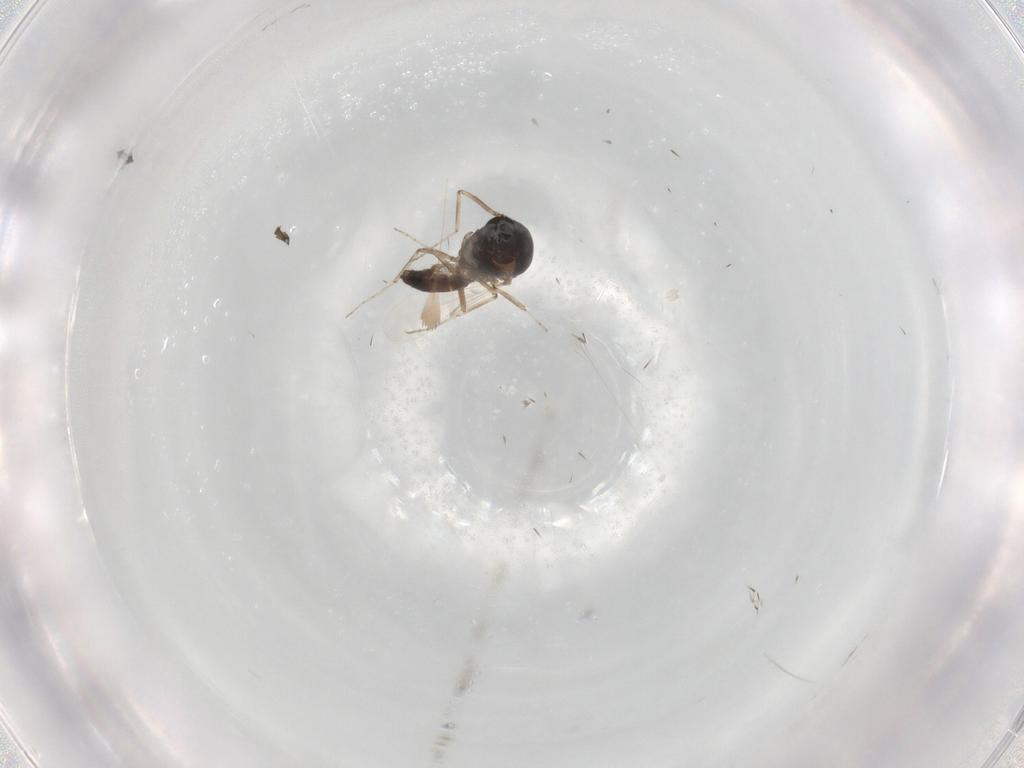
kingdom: Animalia
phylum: Arthropoda
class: Insecta
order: Diptera
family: Ceratopogonidae
